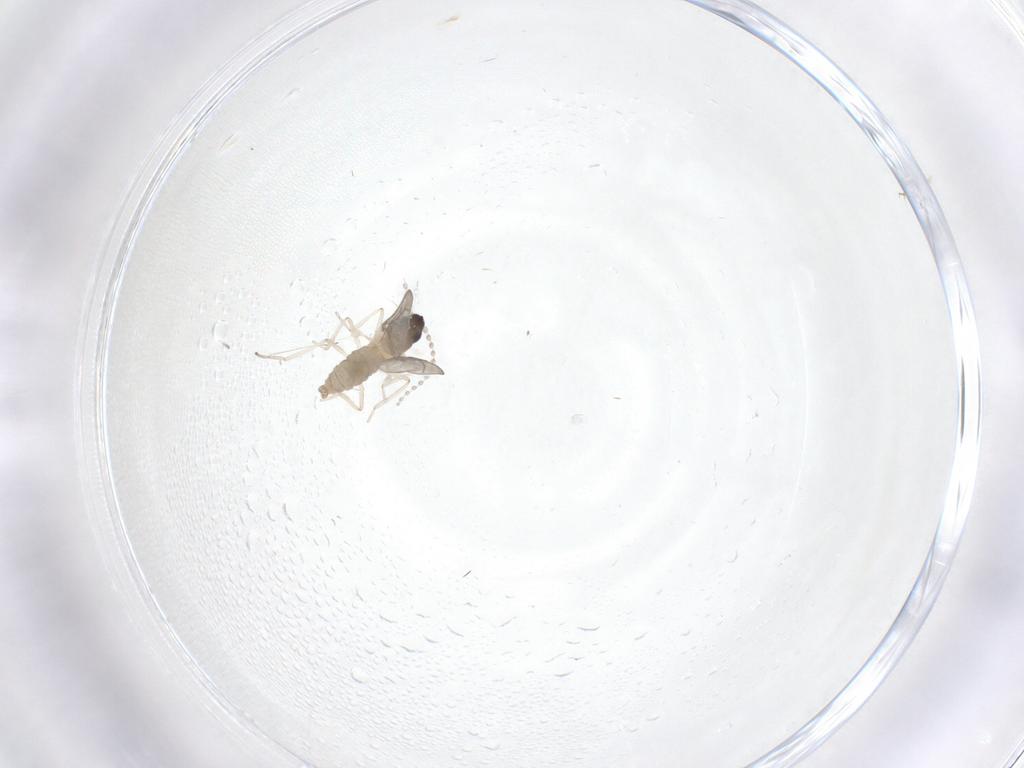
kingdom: Animalia
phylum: Arthropoda
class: Insecta
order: Diptera
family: Cecidomyiidae
